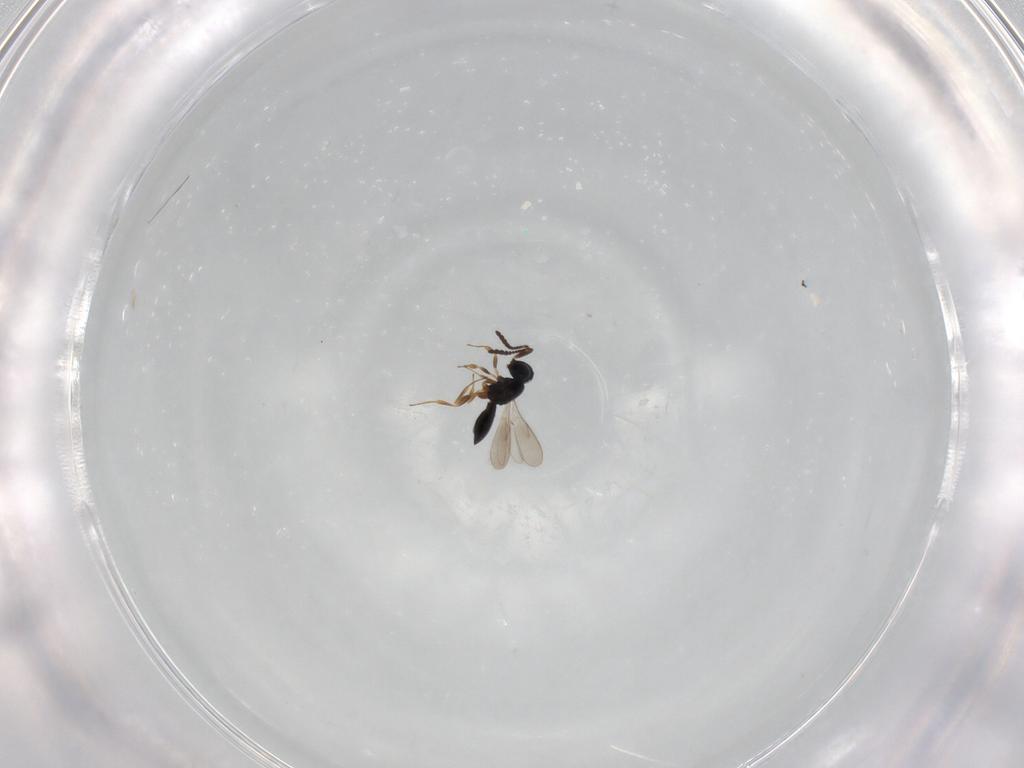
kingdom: Animalia
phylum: Arthropoda
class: Insecta
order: Hymenoptera
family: Scelionidae
